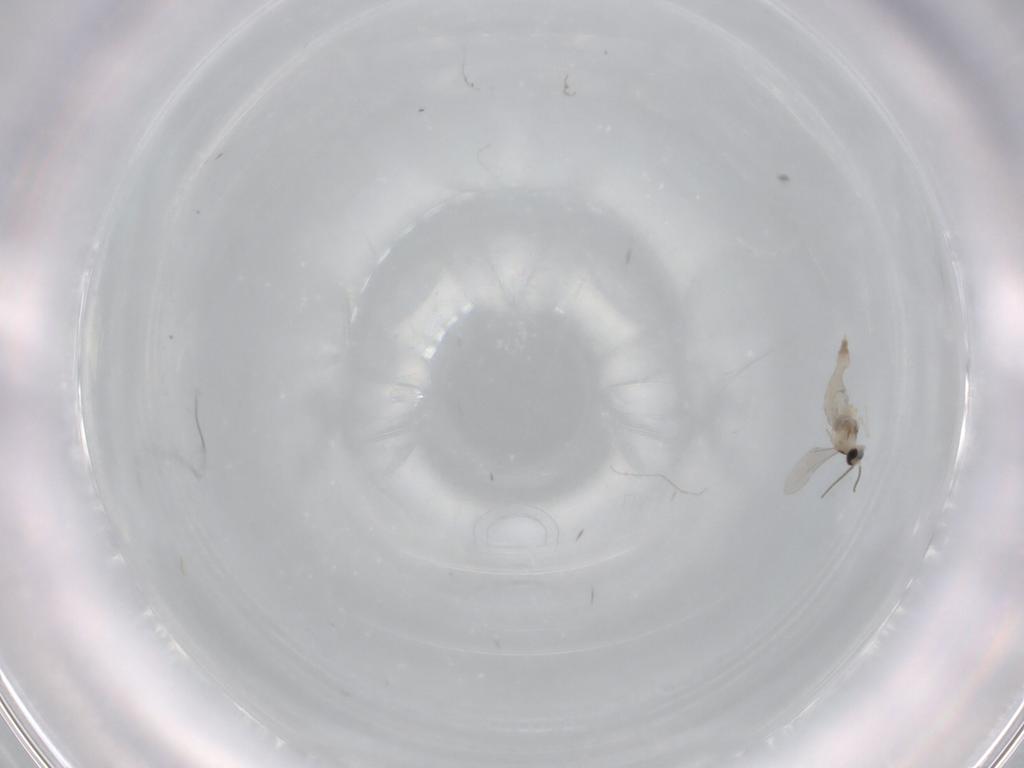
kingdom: Animalia
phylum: Arthropoda
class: Insecta
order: Diptera
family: Cecidomyiidae
